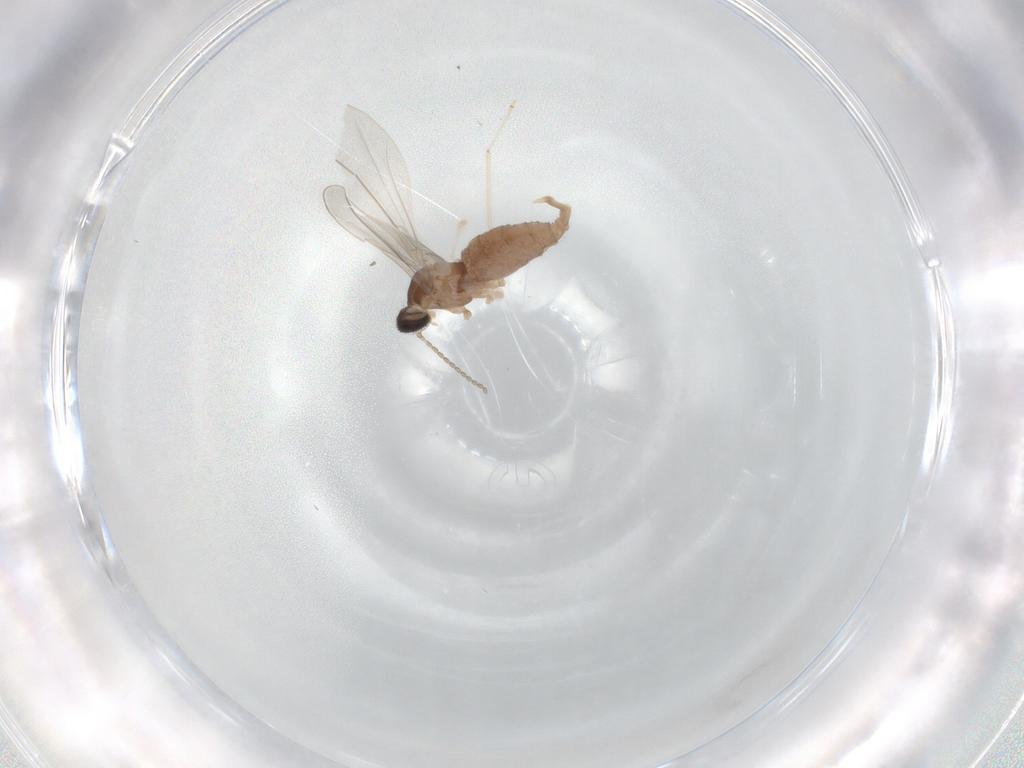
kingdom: Animalia
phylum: Arthropoda
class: Insecta
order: Diptera
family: Cecidomyiidae
